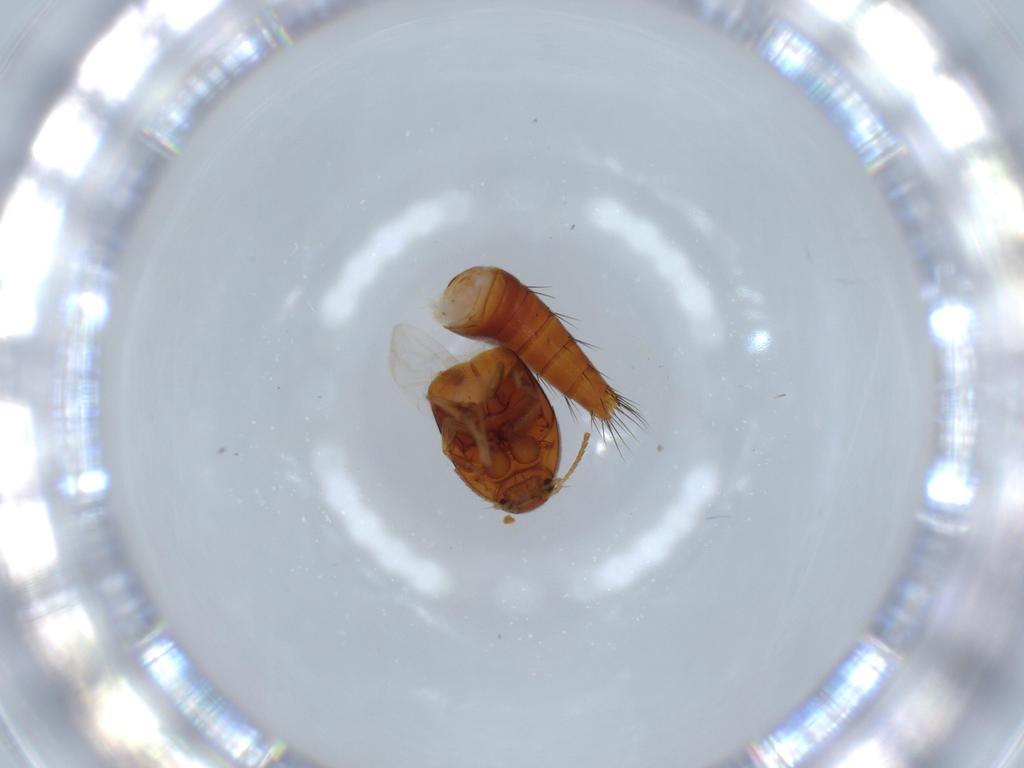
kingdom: Animalia
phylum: Arthropoda
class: Insecta
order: Coleoptera
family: Staphylinidae
